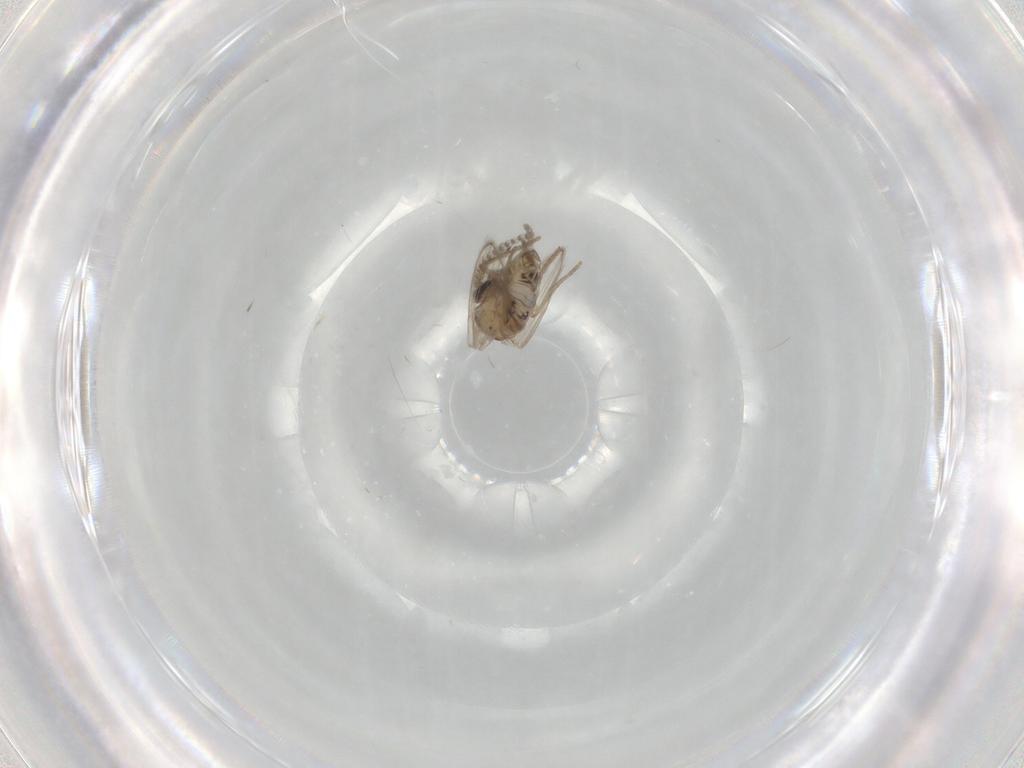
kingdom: Animalia
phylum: Arthropoda
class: Insecta
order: Diptera
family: Psychodidae
